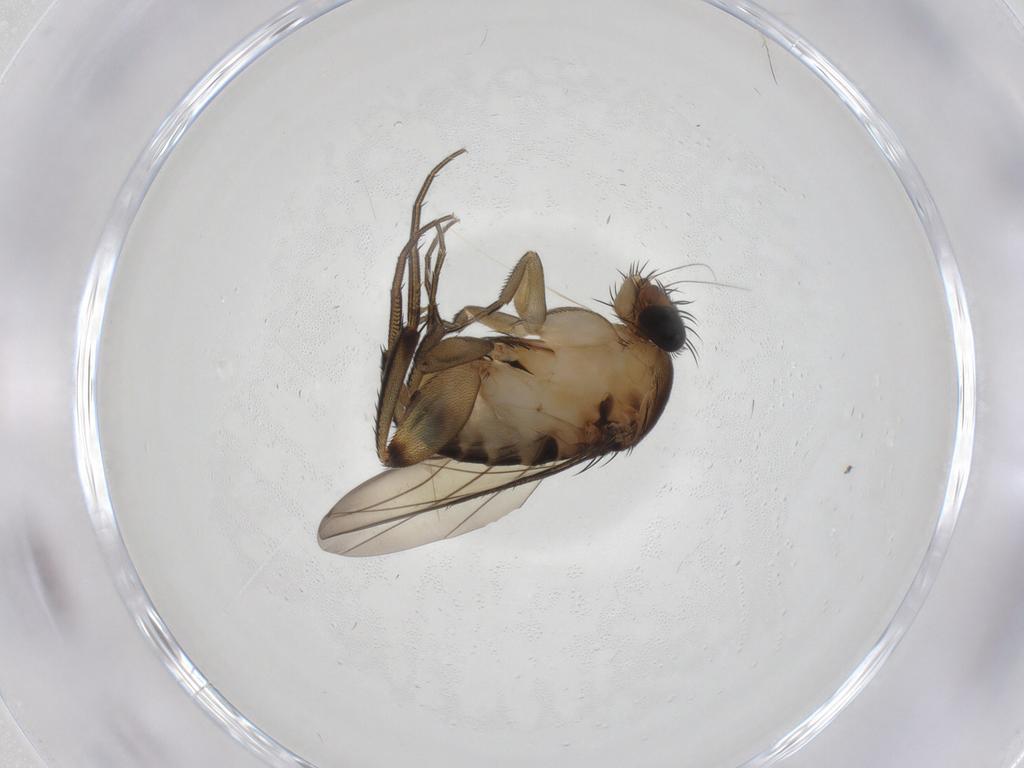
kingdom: Animalia
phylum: Arthropoda
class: Insecta
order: Diptera
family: Phoridae
